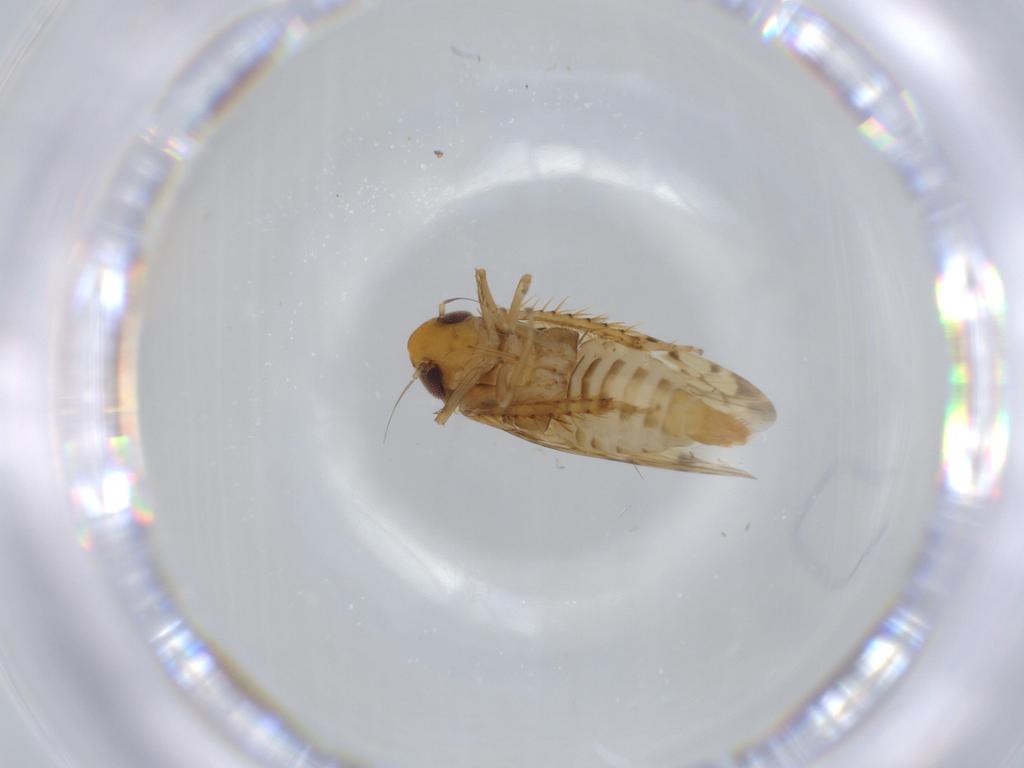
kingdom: Animalia
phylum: Arthropoda
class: Insecta
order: Hemiptera
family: Cicadellidae
